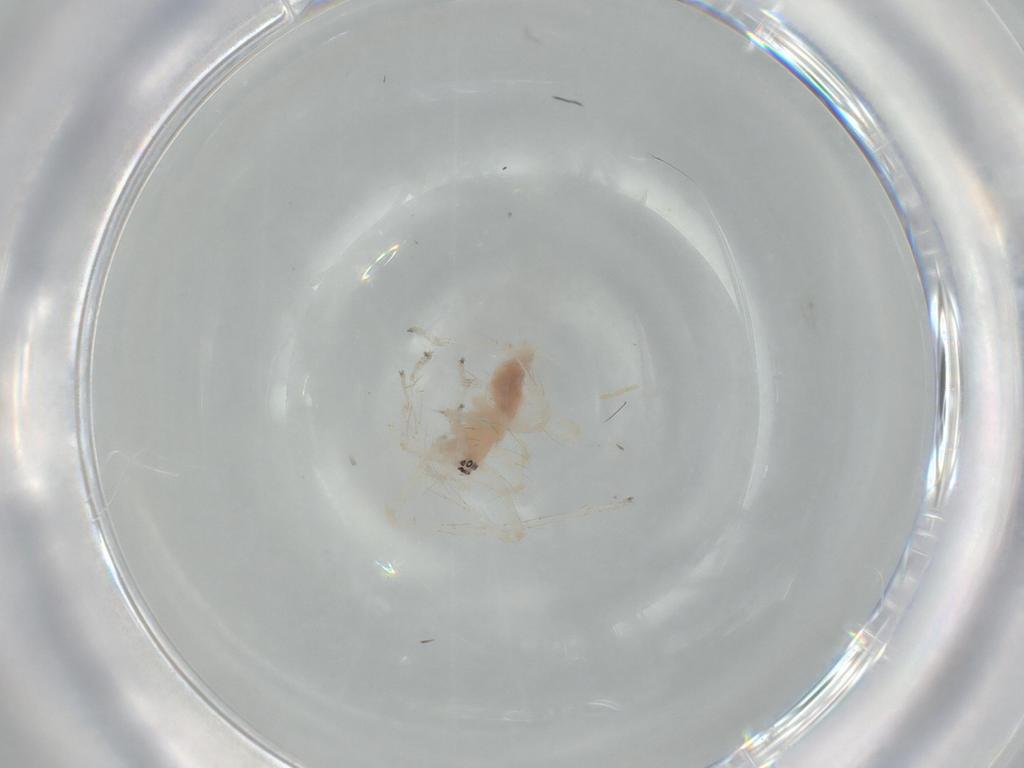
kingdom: Animalia
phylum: Arthropoda
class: Arachnida
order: Araneae
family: Anyphaenidae
